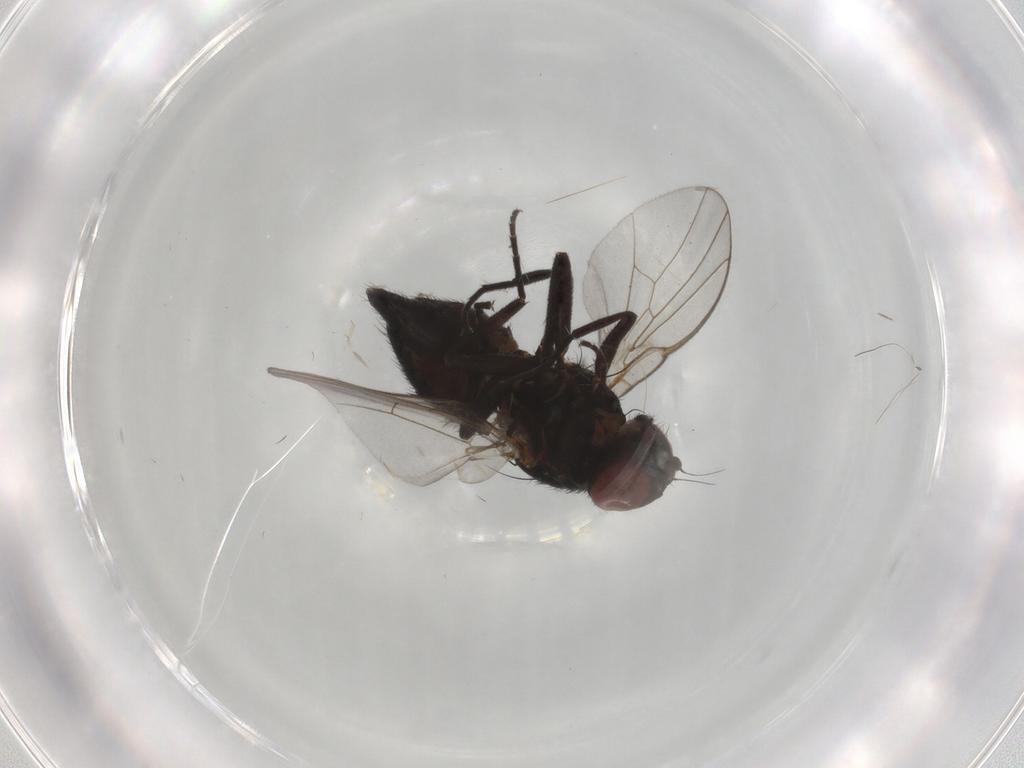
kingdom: Animalia
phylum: Arthropoda
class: Insecta
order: Diptera
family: Agromyzidae
